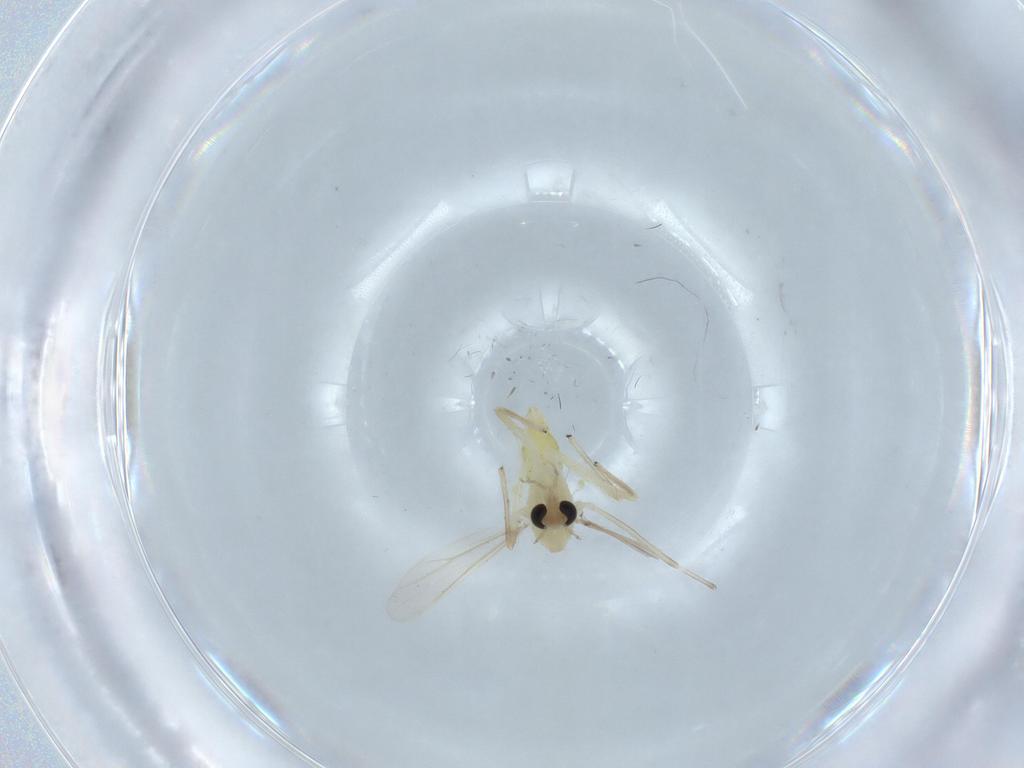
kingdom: Animalia
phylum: Arthropoda
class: Insecta
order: Diptera
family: Chironomidae
